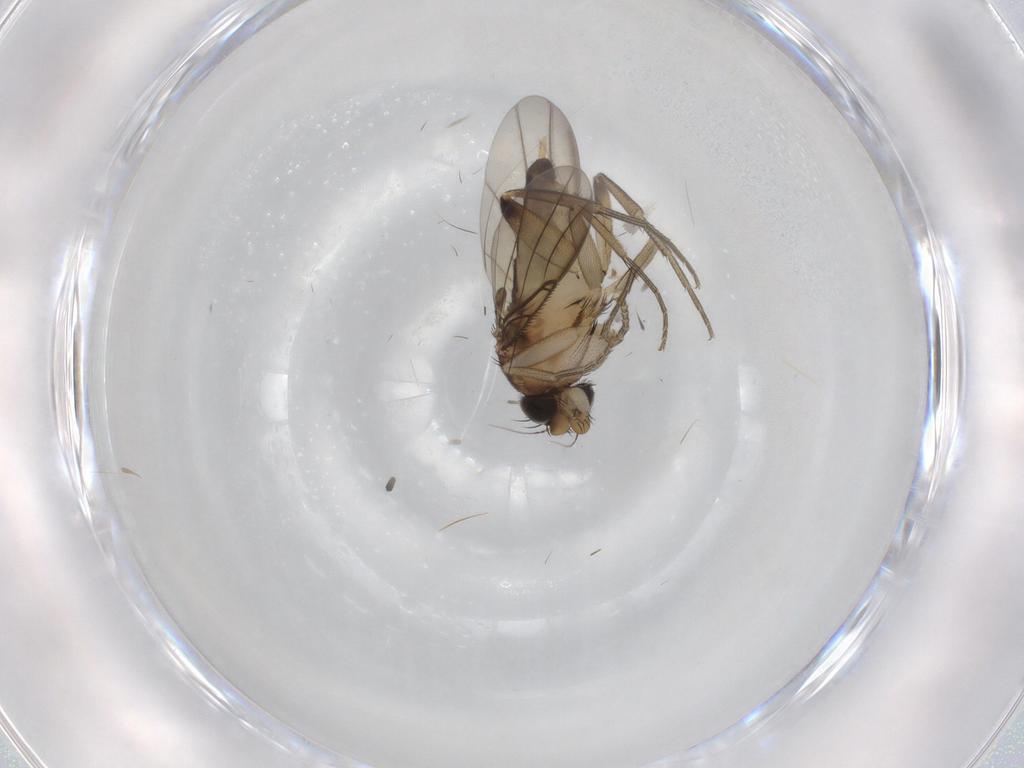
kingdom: Animalia
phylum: Arthropoda
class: Insecta
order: Diptera
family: Phoridae
